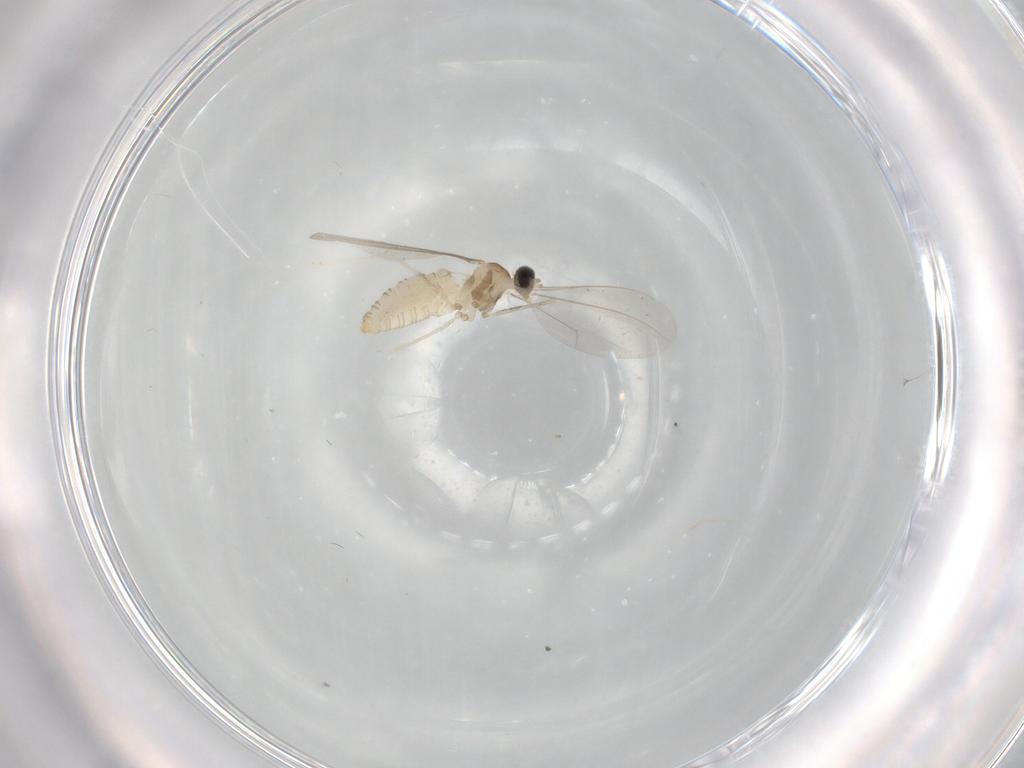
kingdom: Animalia
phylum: Arthropoda
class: Insecta
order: Diptera
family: Cecidomyiidae
